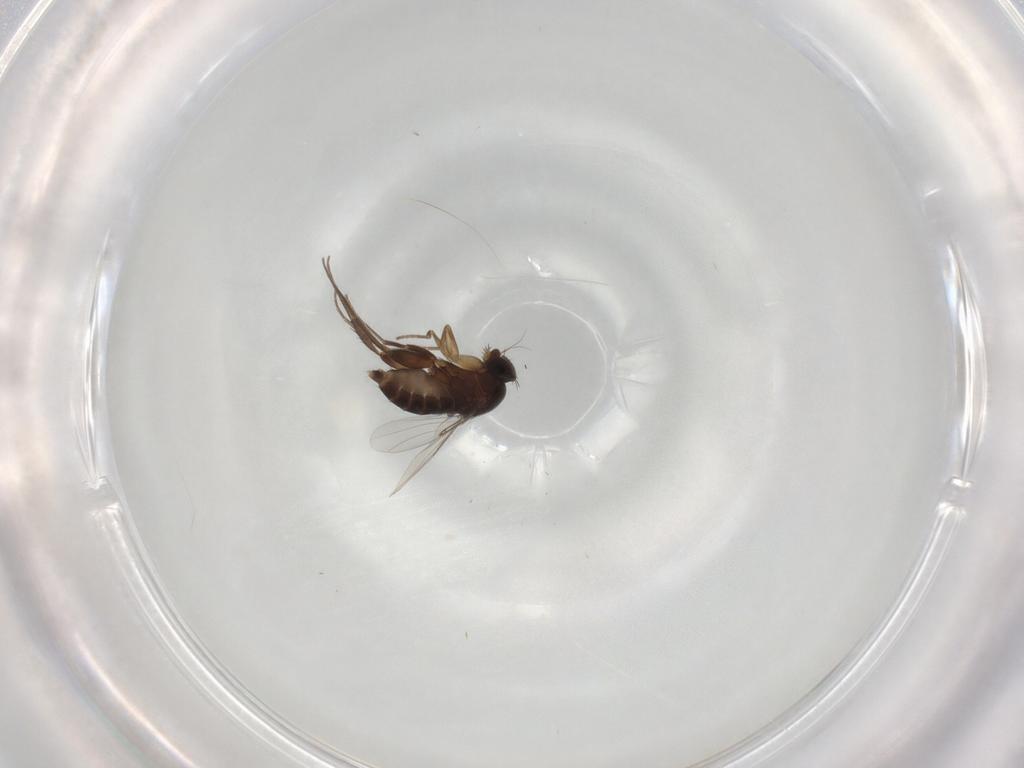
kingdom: Animalia
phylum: Arthropoda
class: Insecta
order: Diptera
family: Phoridae
